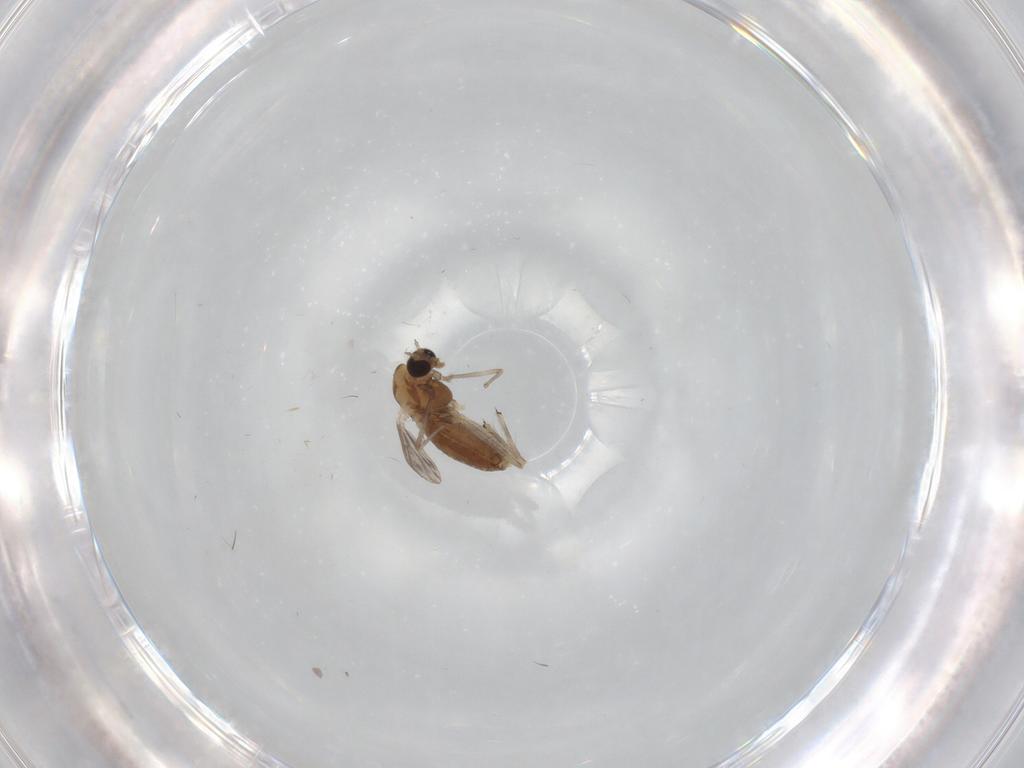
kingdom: Animalia
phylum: Arthropoda
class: Insecta
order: Diptera
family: Chironomidae
